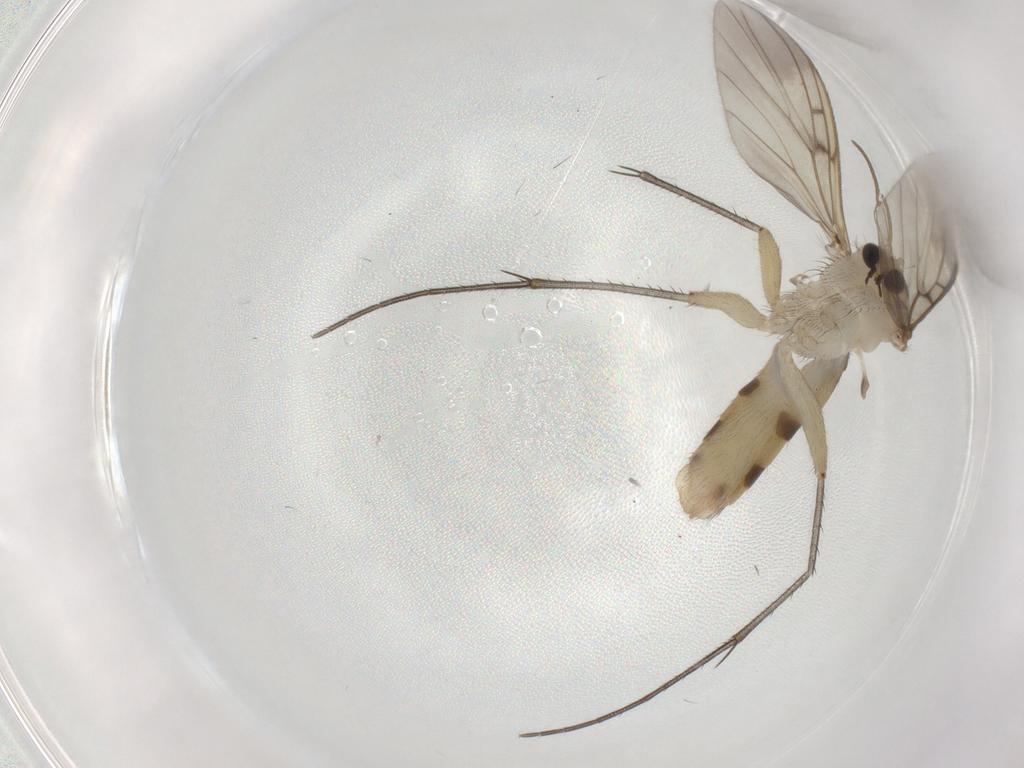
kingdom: Animalia
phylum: Arthropoda
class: Insecta
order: Diptera
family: Dolichopodidae
